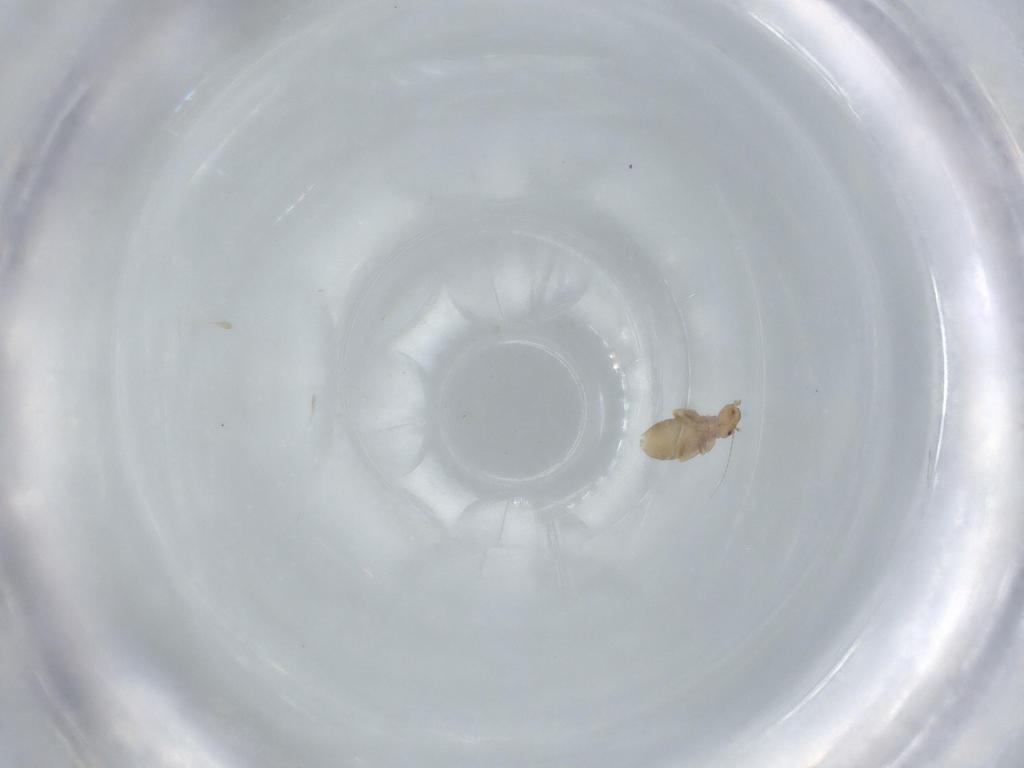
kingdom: Animalia
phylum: Arthropoda
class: Insecta
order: Psocodea
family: Liposcelididae
